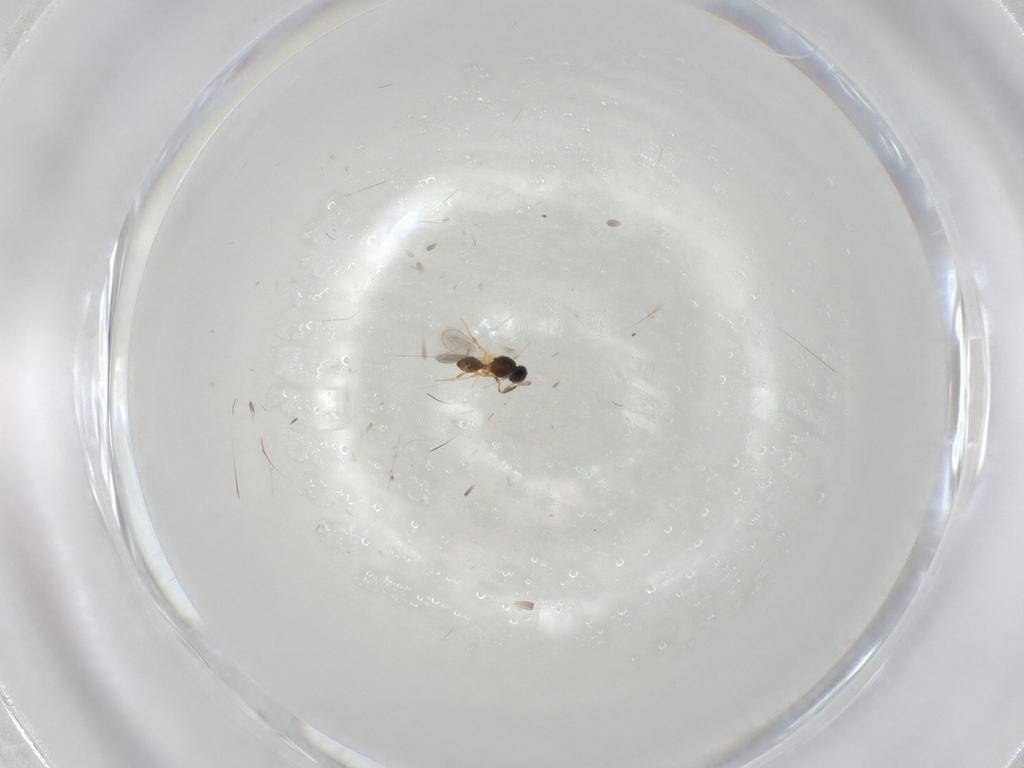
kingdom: Animalia
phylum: Arthropoda
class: Insecta
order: Hymenoptera
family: Platygastridae
